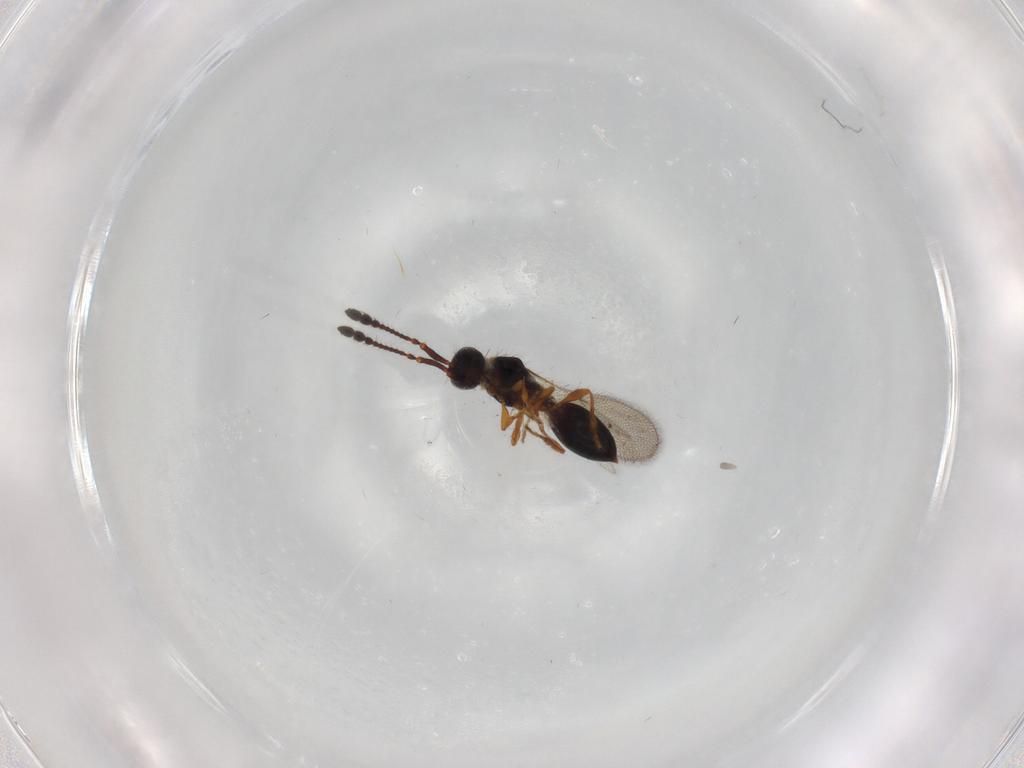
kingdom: Animalia
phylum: Arthropoda
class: Insecta
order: Hymenoptera
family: Diapriidae
